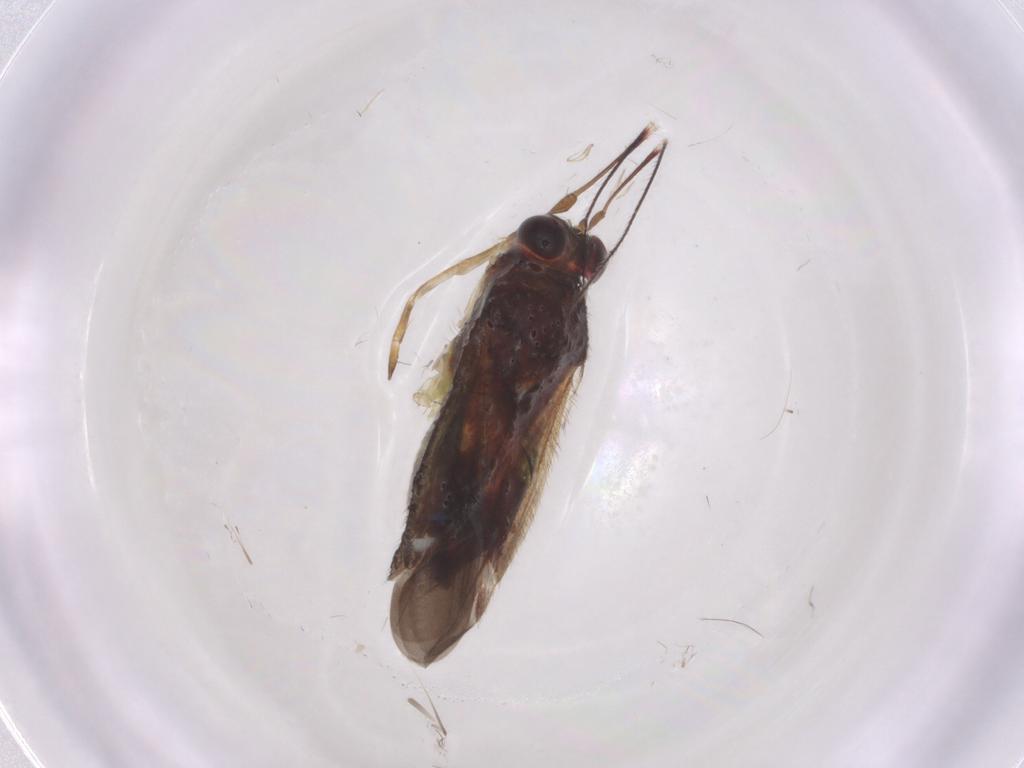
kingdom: Animalia
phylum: Arthropoda
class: Insecta
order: Hemiptera
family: Miridae
